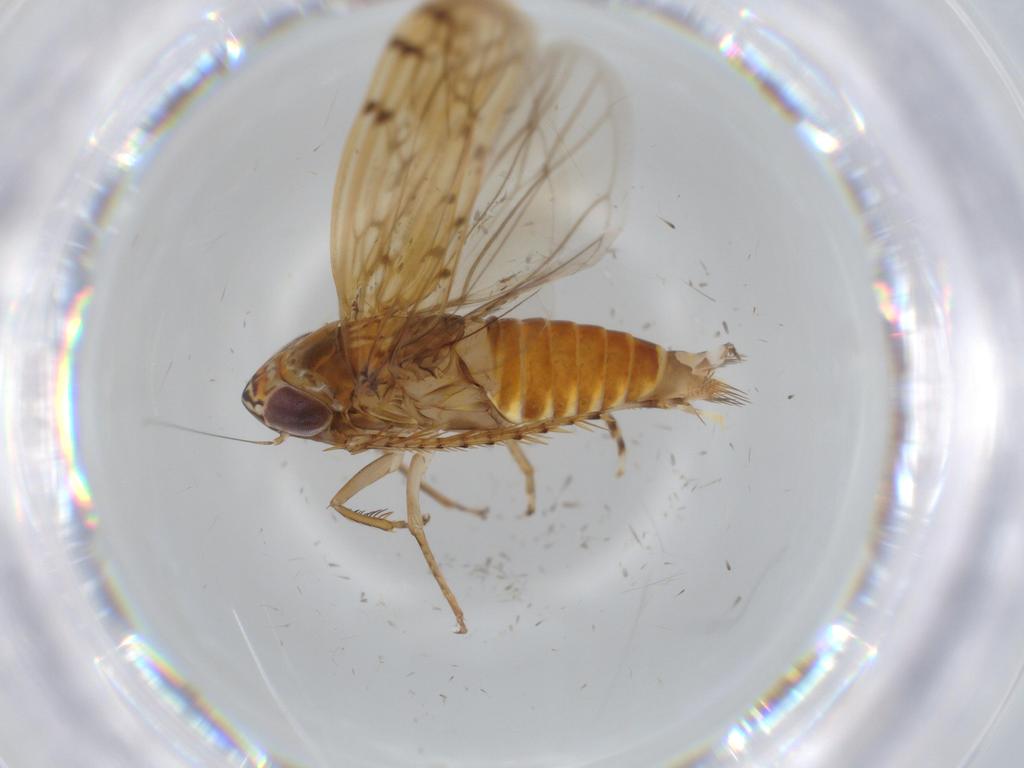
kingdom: Animalia
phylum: Arthropoda
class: Insecta
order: Hemiptera
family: Cicadellidae
